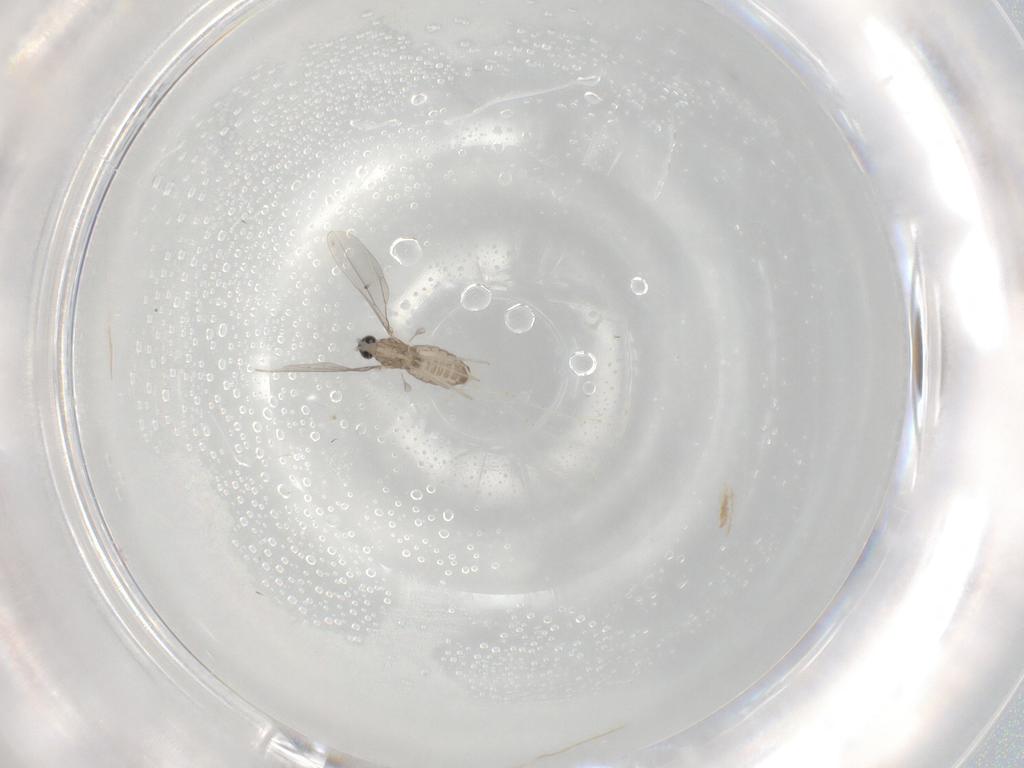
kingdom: Animalia
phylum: Arthropoda
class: Insecta
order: Diptera
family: Cecidomyiidae
